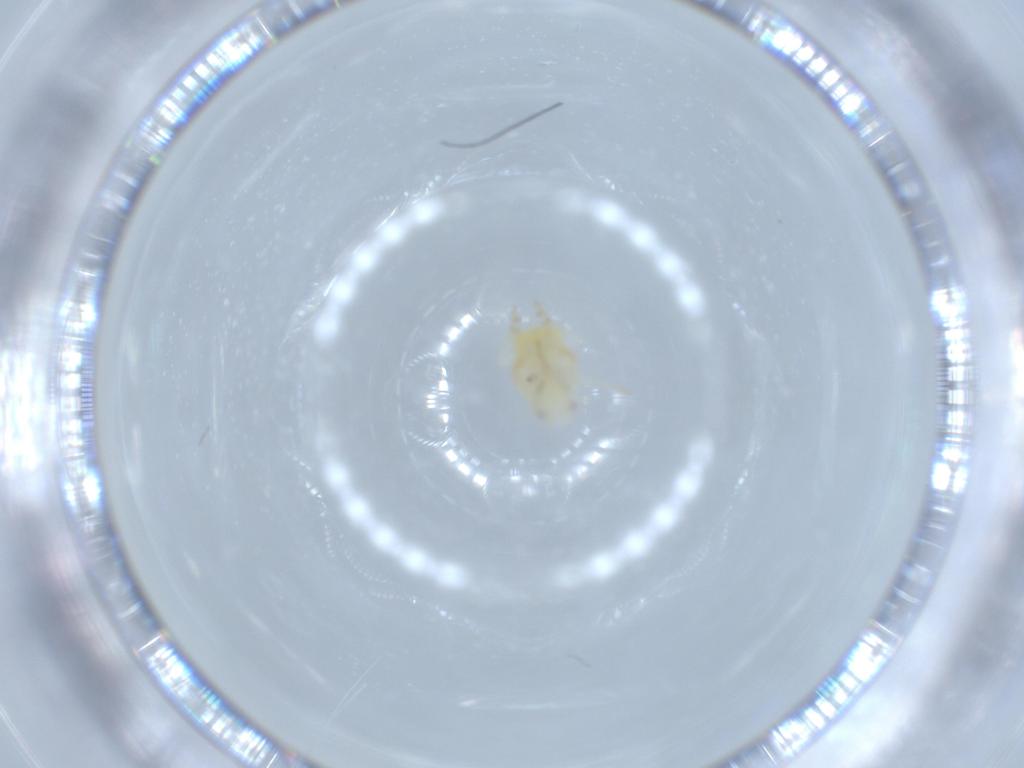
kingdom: Animalia
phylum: Arthropoda
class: Insecta
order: Hemiptera
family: Flatidae
